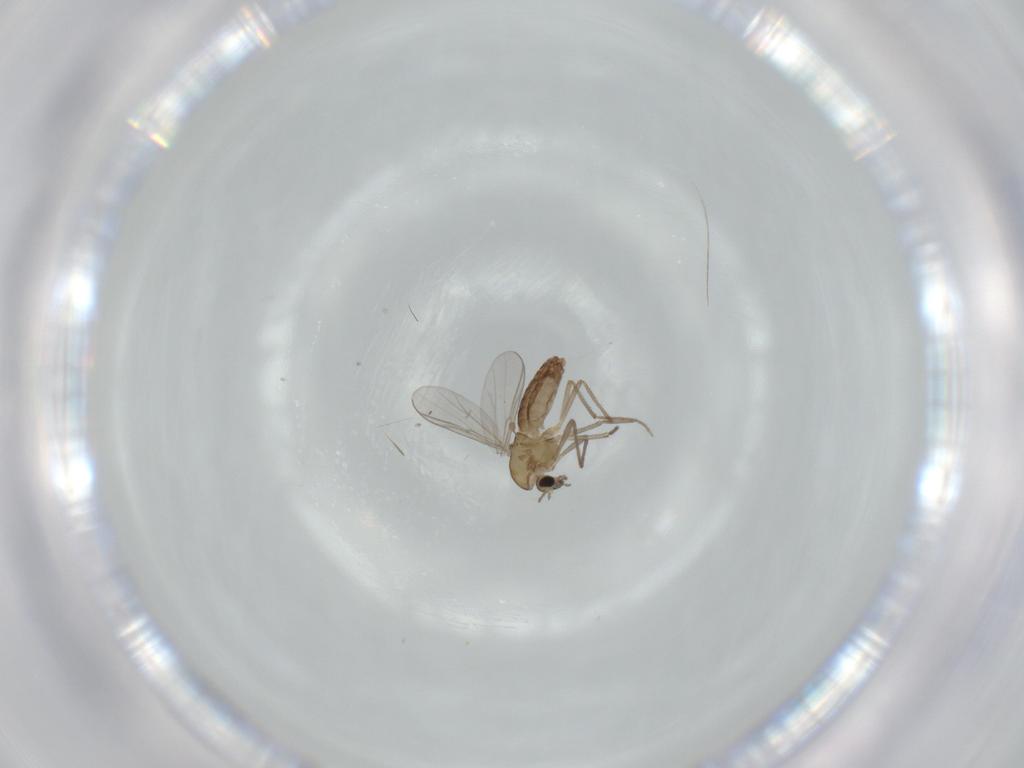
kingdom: Animalia
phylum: Arthropoda
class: Insecta
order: Diptera
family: Chironomidae
